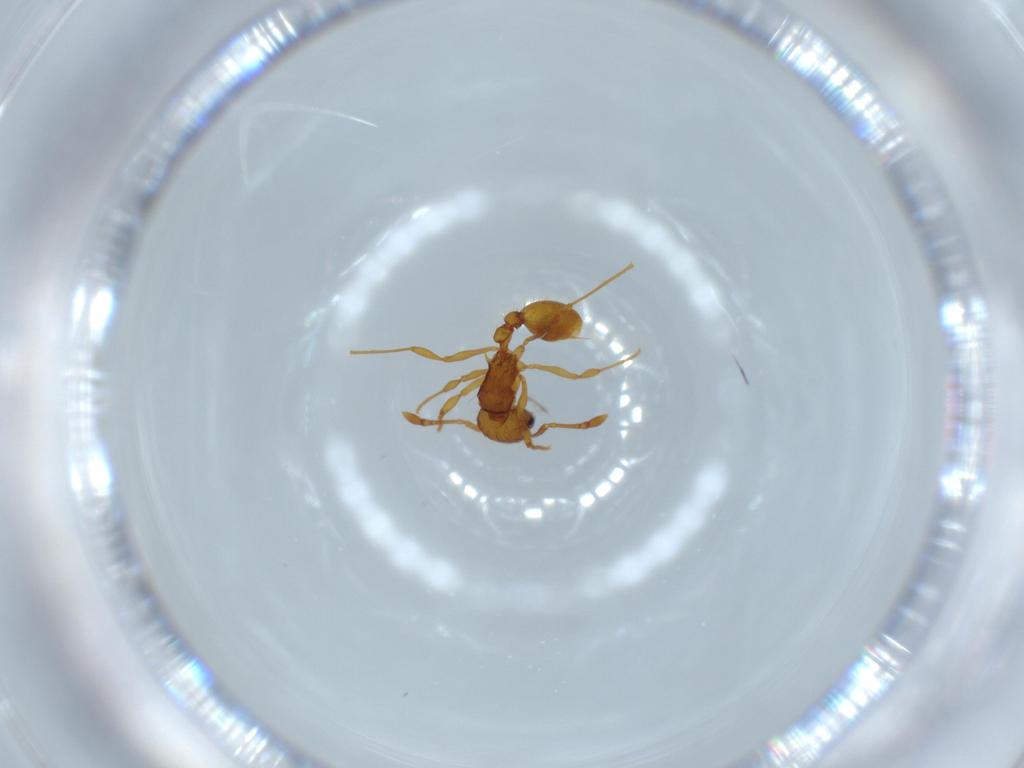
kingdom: Animalia
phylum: Arthropoda
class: Insecta
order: Hymenoptera
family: Formicidae
